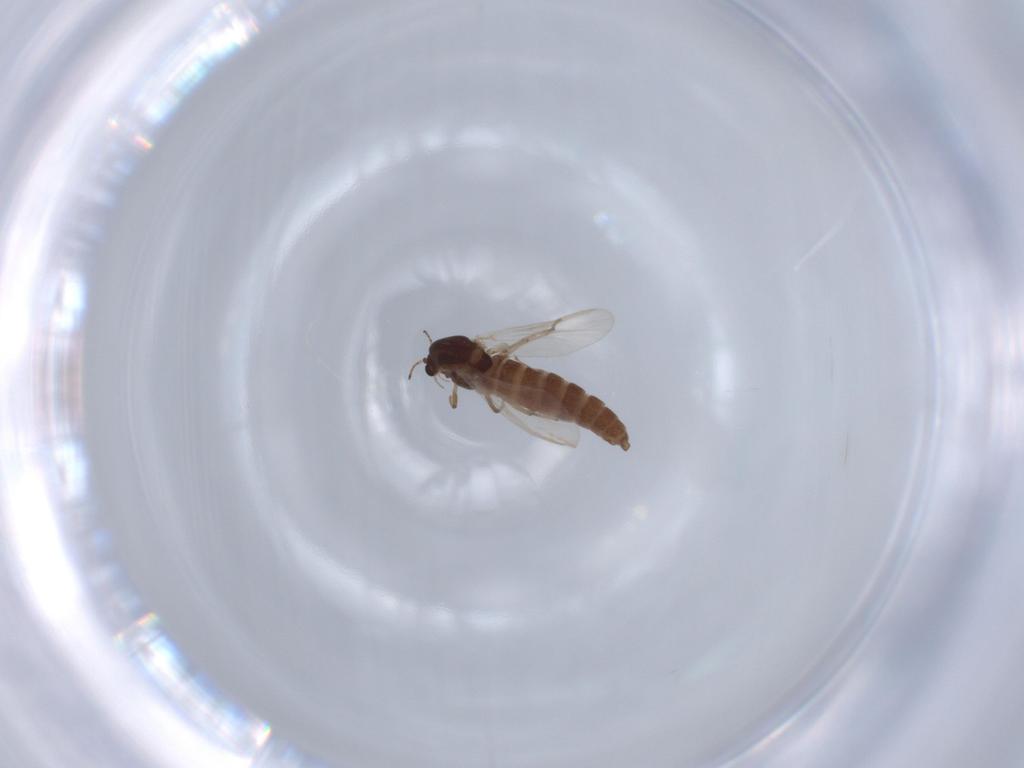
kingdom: Animalia
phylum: Arthropoda
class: Insecta
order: Diptera
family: Chironomidae
